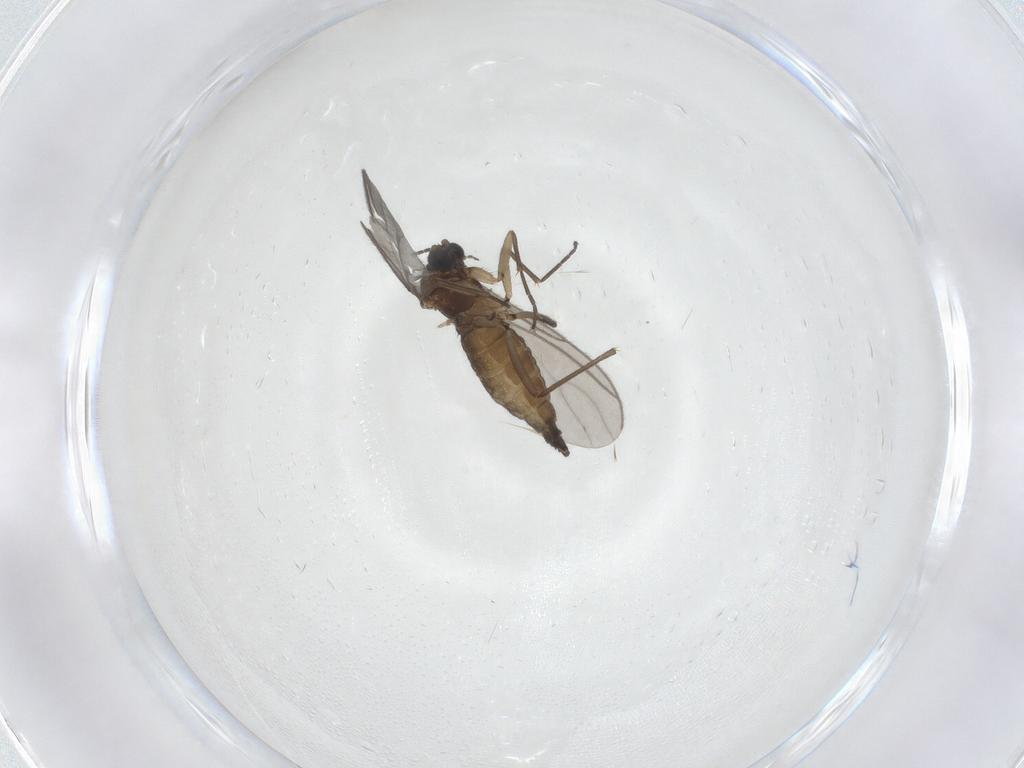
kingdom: Animalia
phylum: Arthropoda
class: Insecta
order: Diptera
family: Sciaridae
